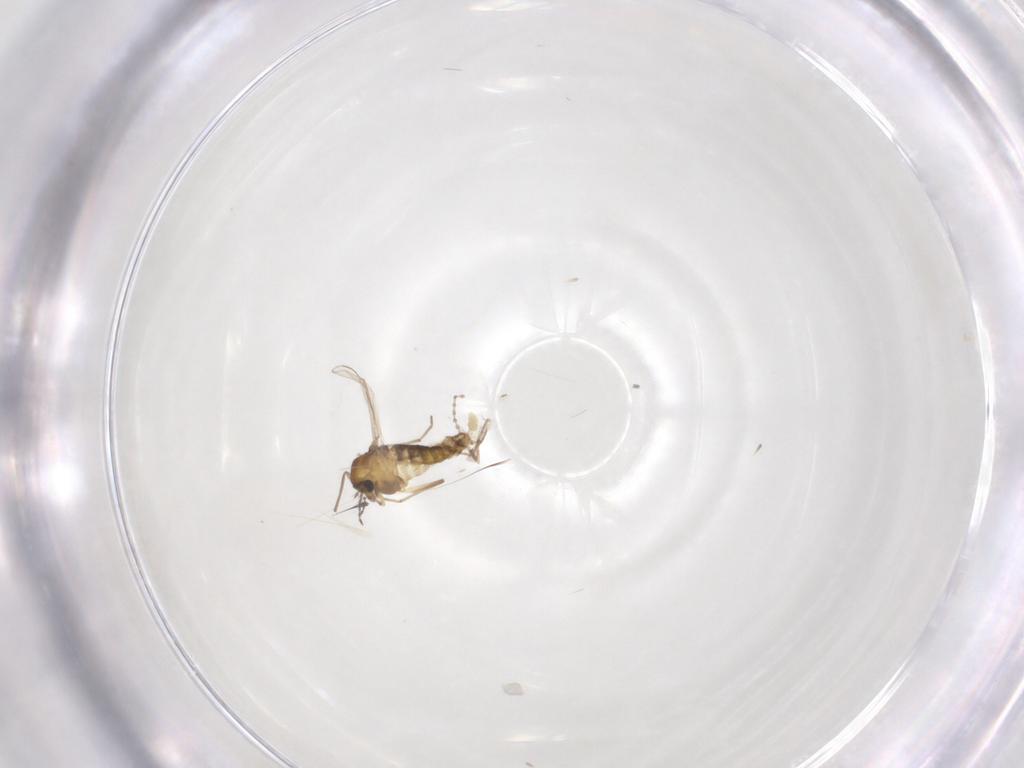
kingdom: Animalia
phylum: Arthropoda
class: Insecta
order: Diptera
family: Chironomidae
